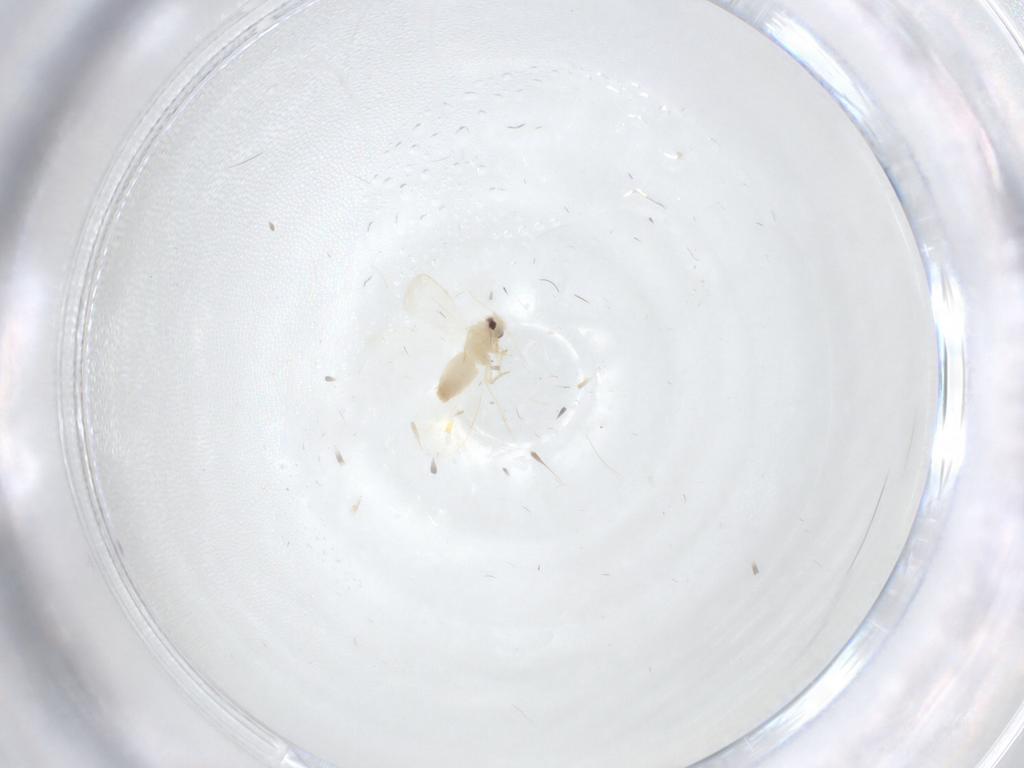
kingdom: Animalia
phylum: Arthropoda
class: Insecta
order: Hemiptera
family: Aleyrodidae
